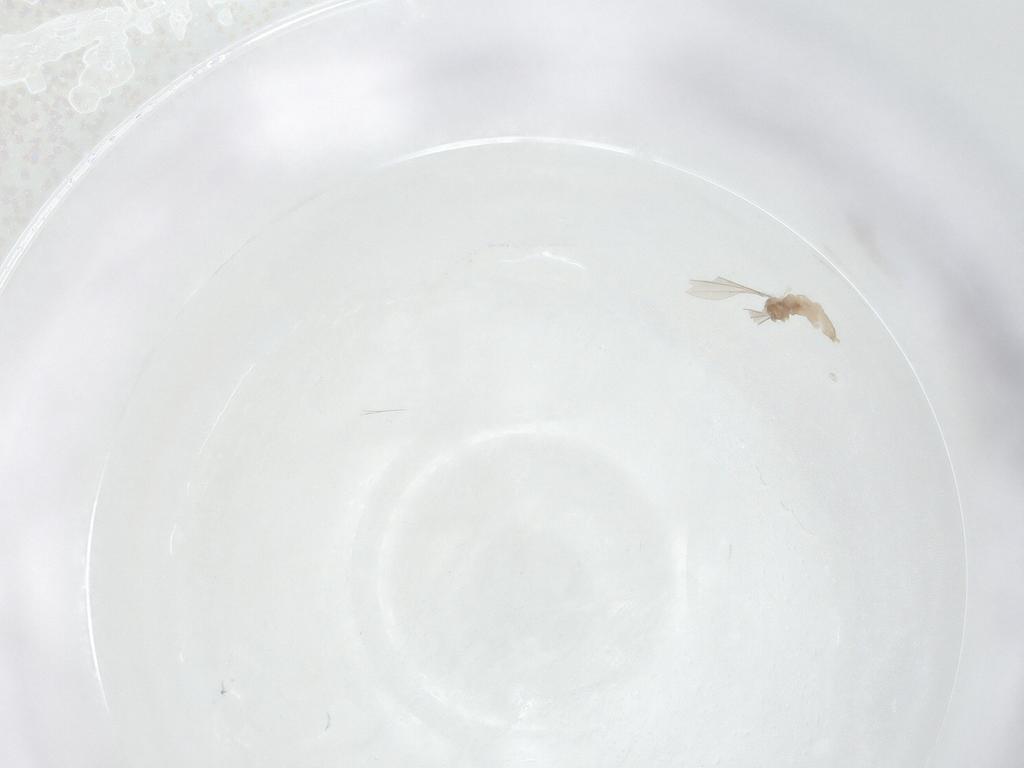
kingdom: Animalia
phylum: Arthropoda
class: Insecta
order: Diptera
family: Cecidomyiidae
